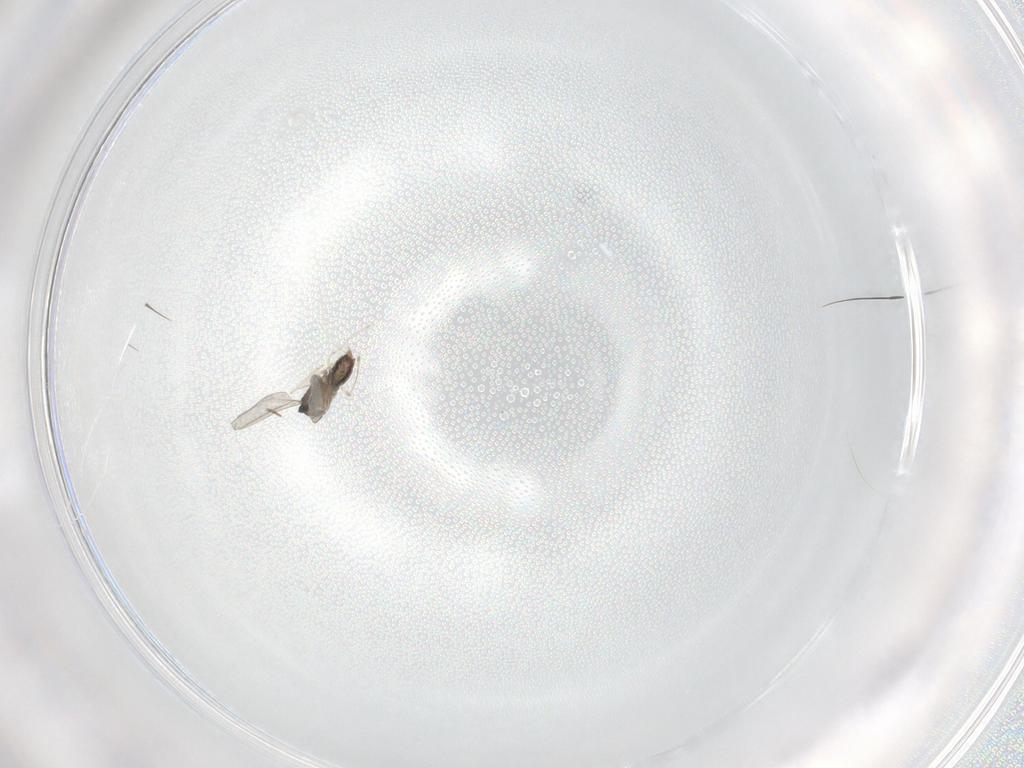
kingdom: Animalia
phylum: Arthropoda
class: Insecta
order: Diptera
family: Cecidomyiidae
